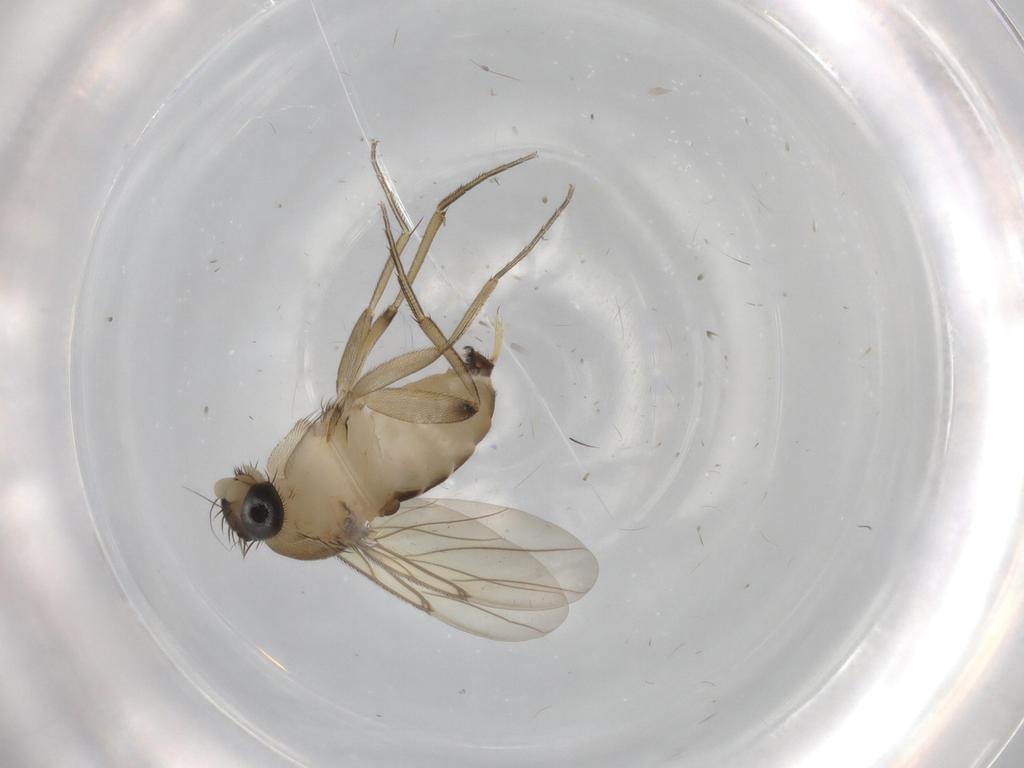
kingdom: Animalia
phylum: Arthropoda
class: Insecta
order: Diptera
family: Phoridae
